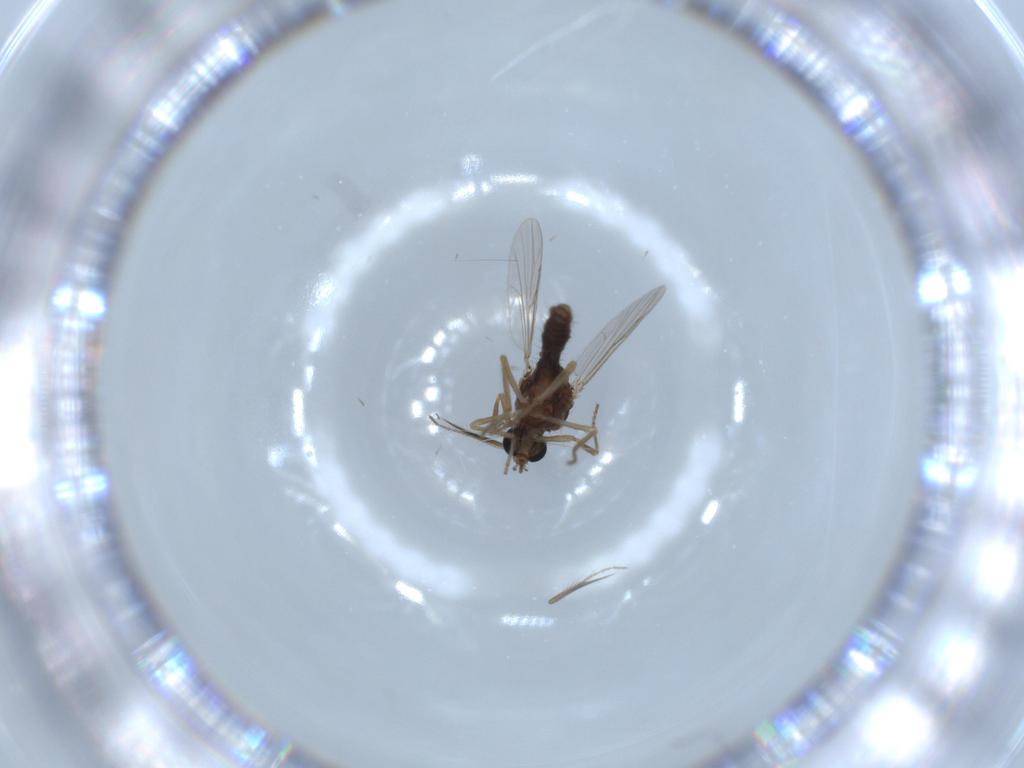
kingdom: Animalia
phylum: Arthropoda
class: Insecta
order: Diptera
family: Ceratopogonidae
